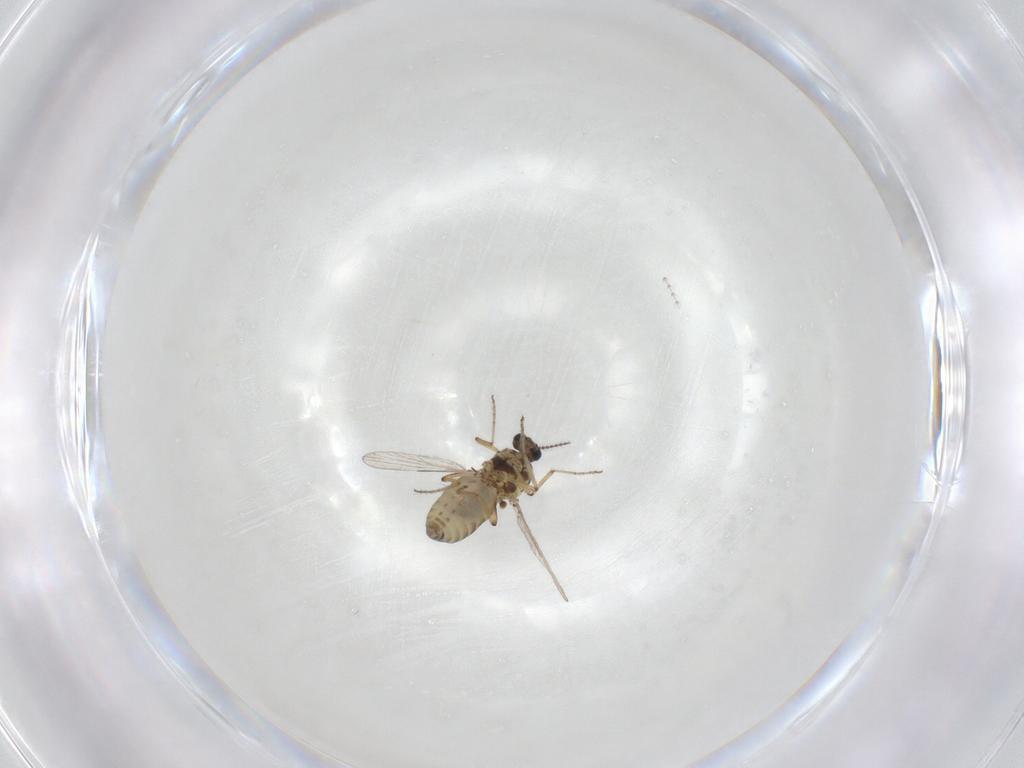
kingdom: Animalia
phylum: Arthropoda
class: Insecta
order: Diptera
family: Ceratopogonidae
